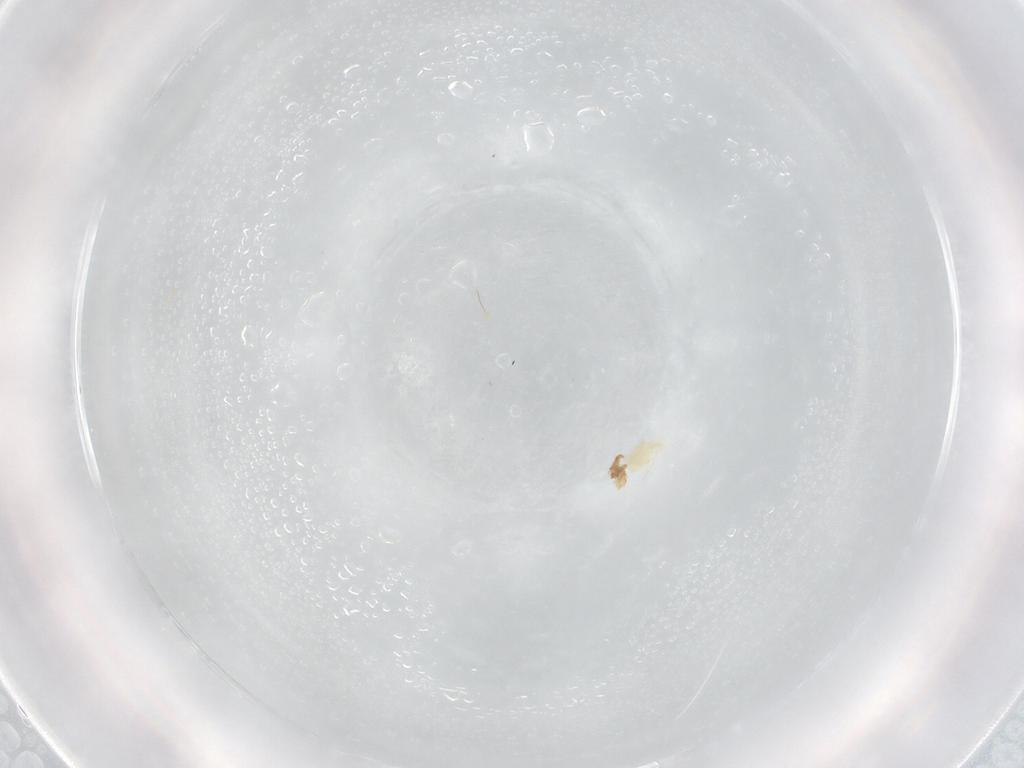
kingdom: Animalia
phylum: Arthropoda
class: Arachnida
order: Trombidiformes
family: Eupodidae
